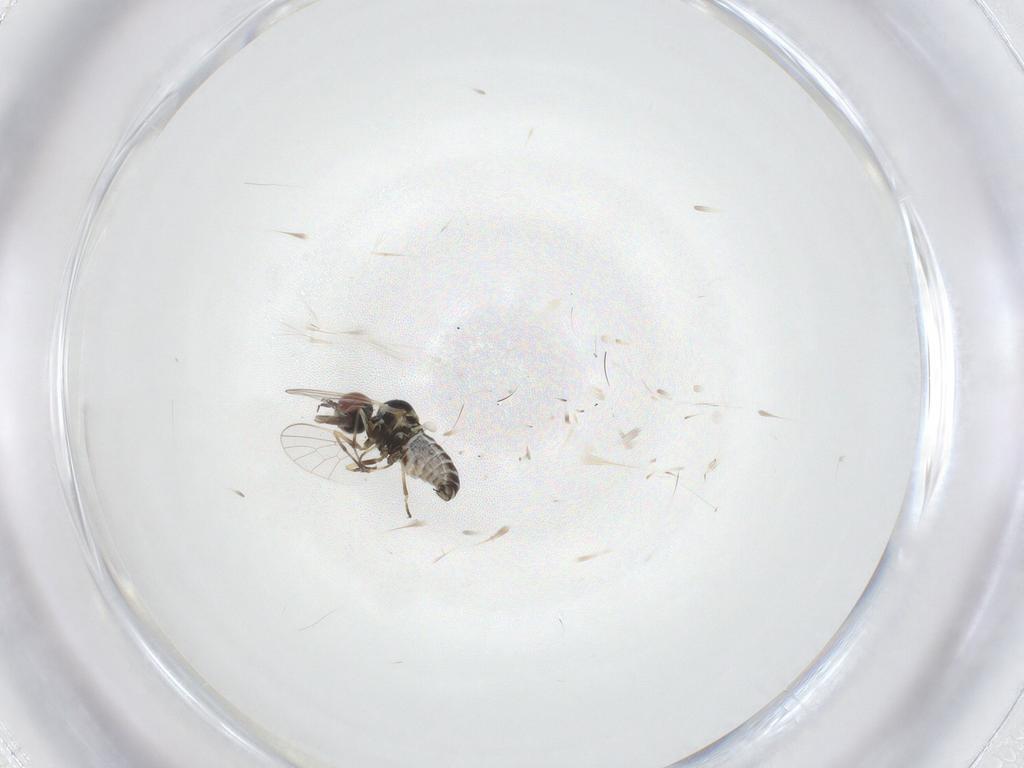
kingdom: Animalia
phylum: Arthropoda
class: Insecta
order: Diptera
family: Mythicomyiidae
